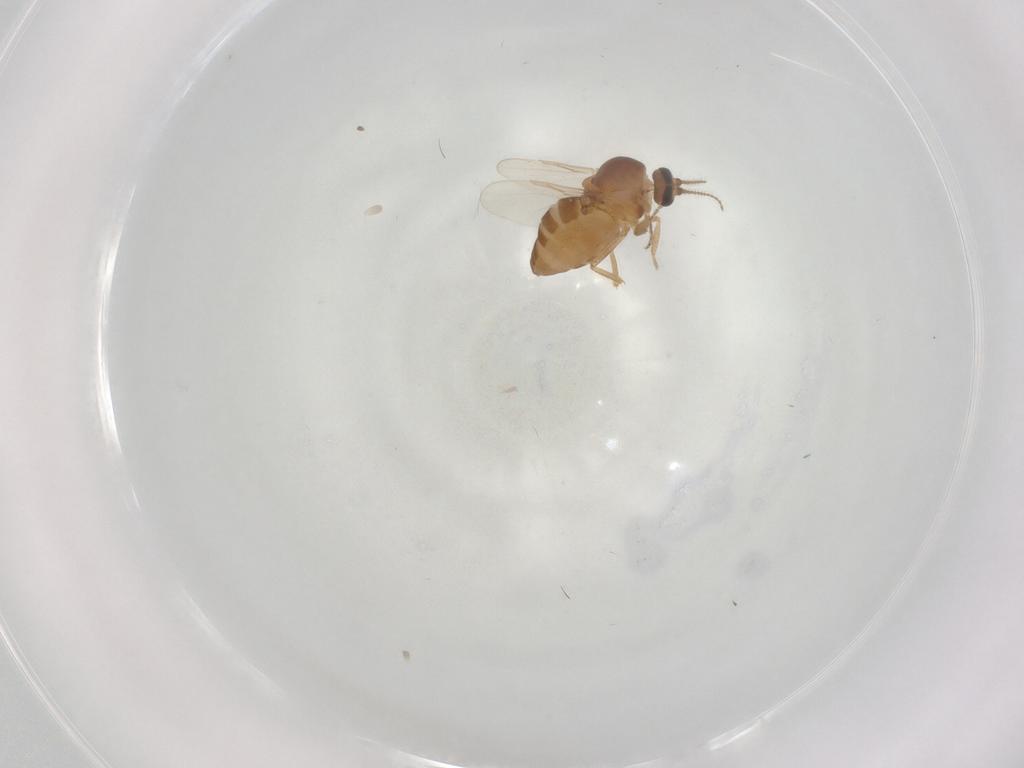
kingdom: Animalia
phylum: Arthropoda
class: Insecta
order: Diptera
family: Ceratopogonidae
